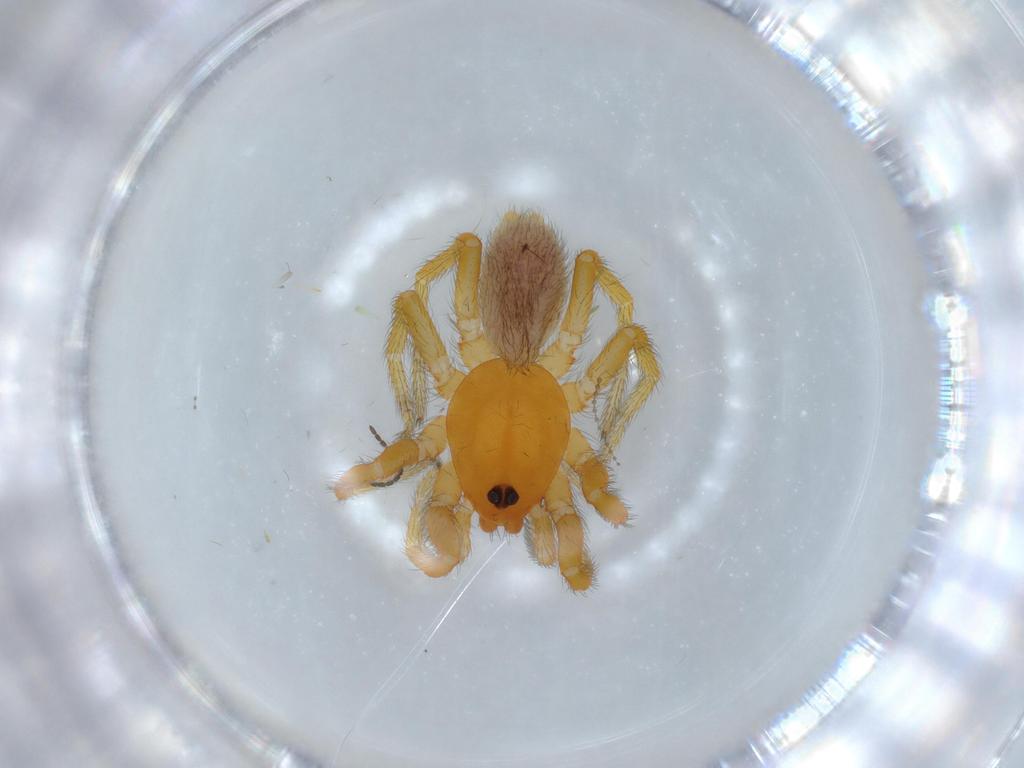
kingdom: Animalia
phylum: Arthropoda
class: Arachnida
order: Araneae
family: Caponiidae
